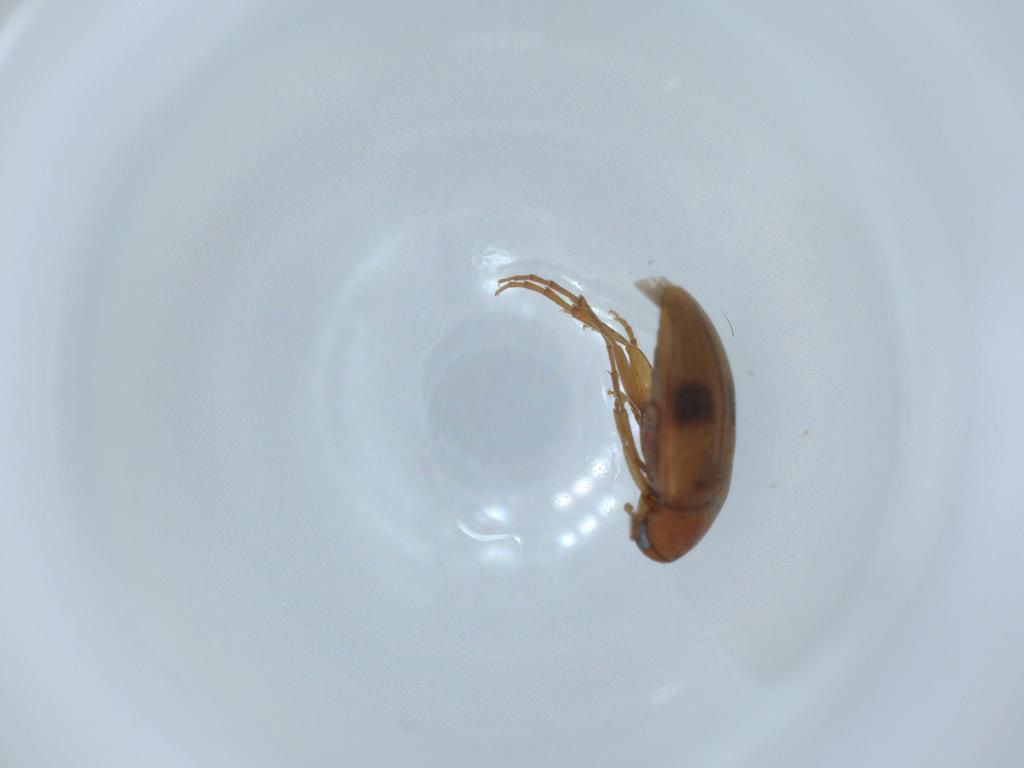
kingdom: Animalia
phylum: Arthropoda
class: Insecta
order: Coleoptera
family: Scraptiidae
